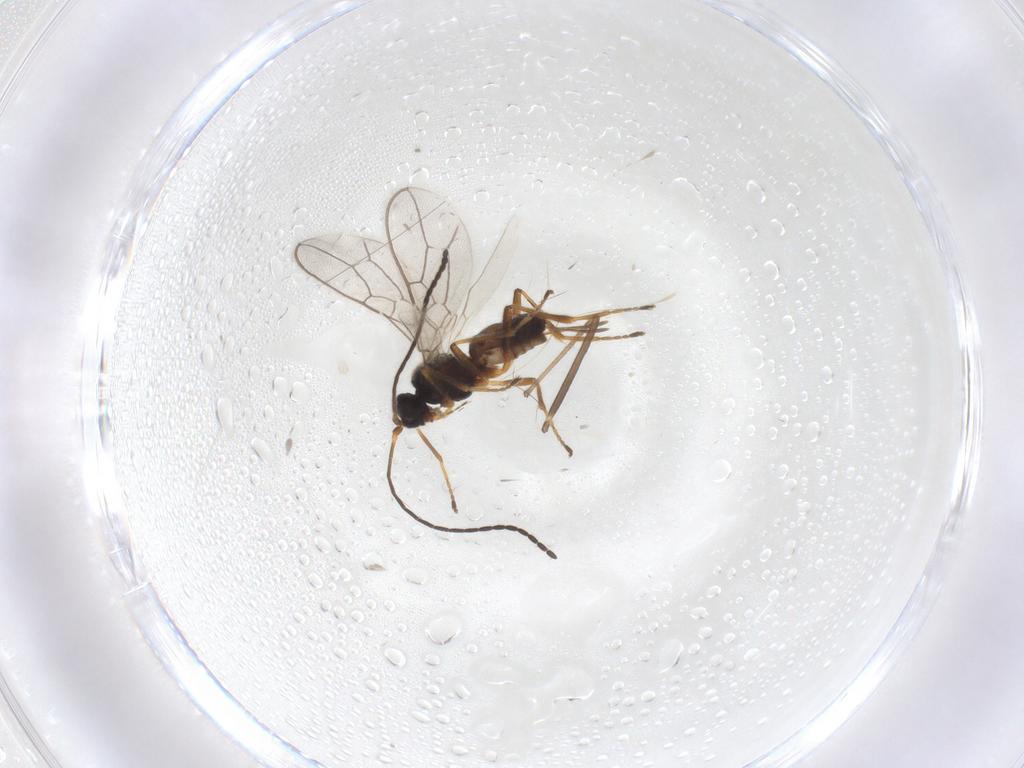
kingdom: Animalia
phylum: Arthropoda
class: Insecta
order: Hymenoptera
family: Braconidae
